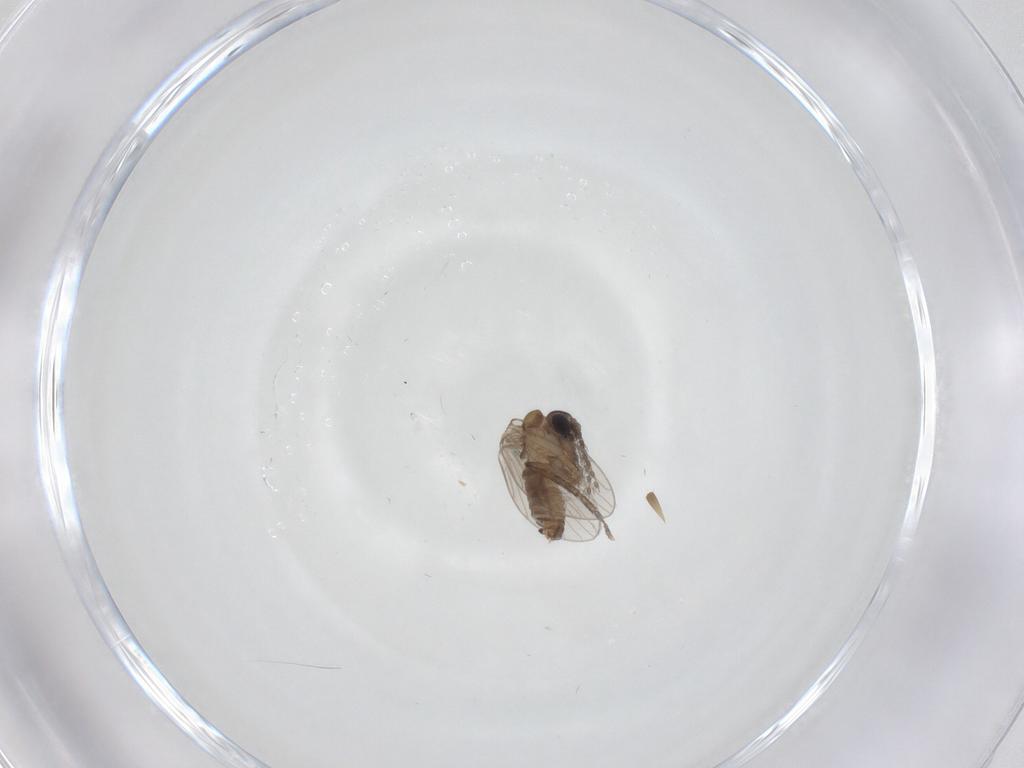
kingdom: Animalia
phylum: Arthropoda
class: Insecta
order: Diptera
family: Psychodidae
